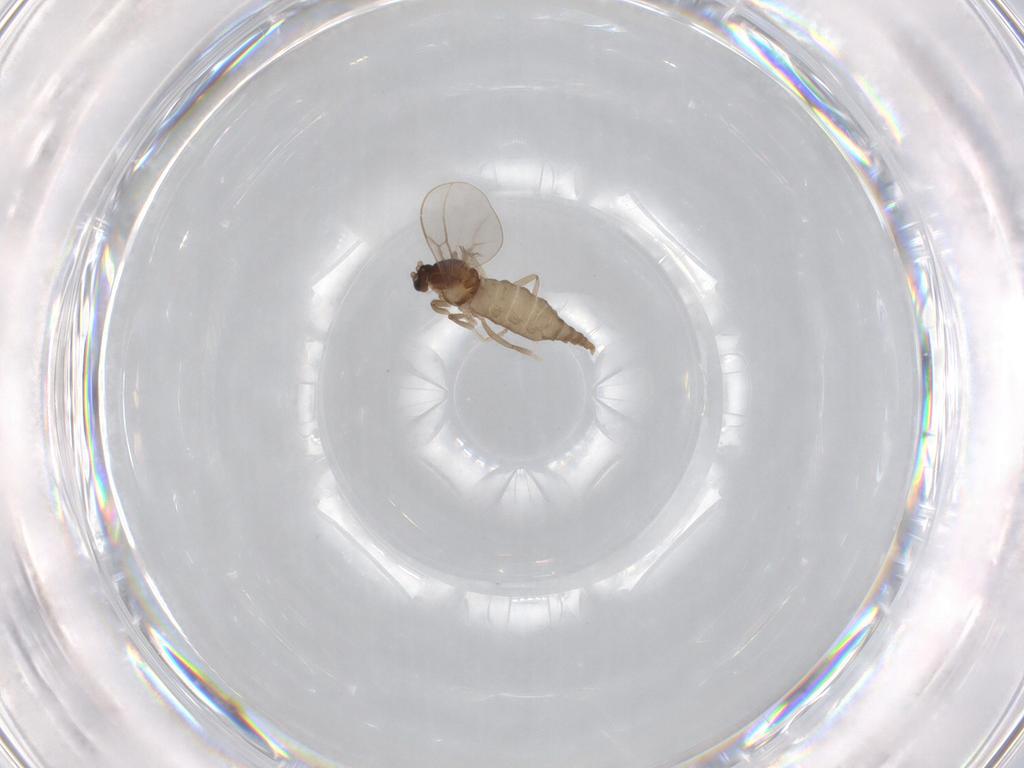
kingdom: Animalia
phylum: Arthropoda
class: Insecta
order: Diptera
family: Cecidomyiidae
